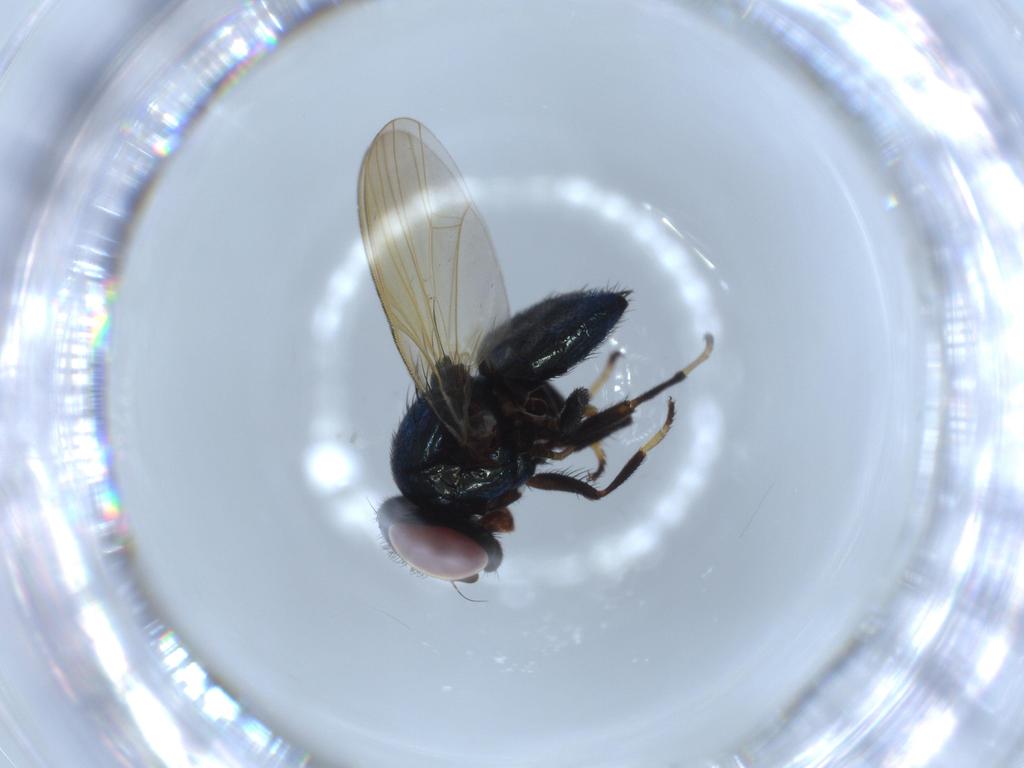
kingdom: Animalia
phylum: Arthropoda
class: Insecta
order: Diptera
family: Lonchaeidae
